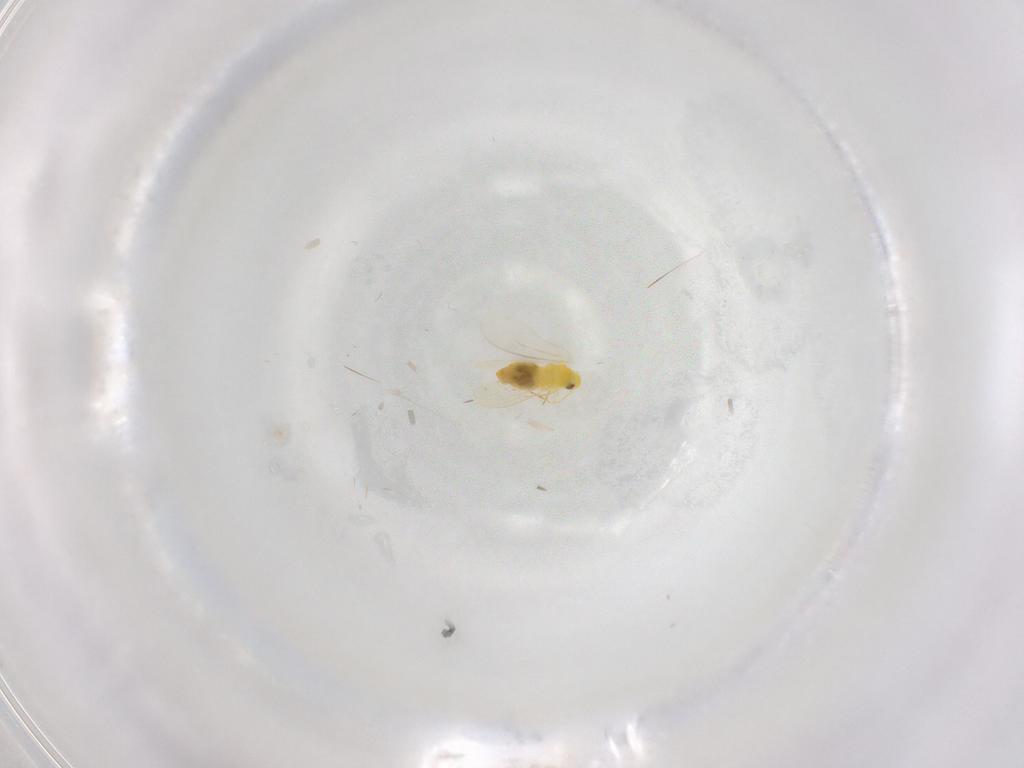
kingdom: Animalia
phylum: Arthropoda
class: Insecta
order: Hemiptera
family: Aleyrodidae
